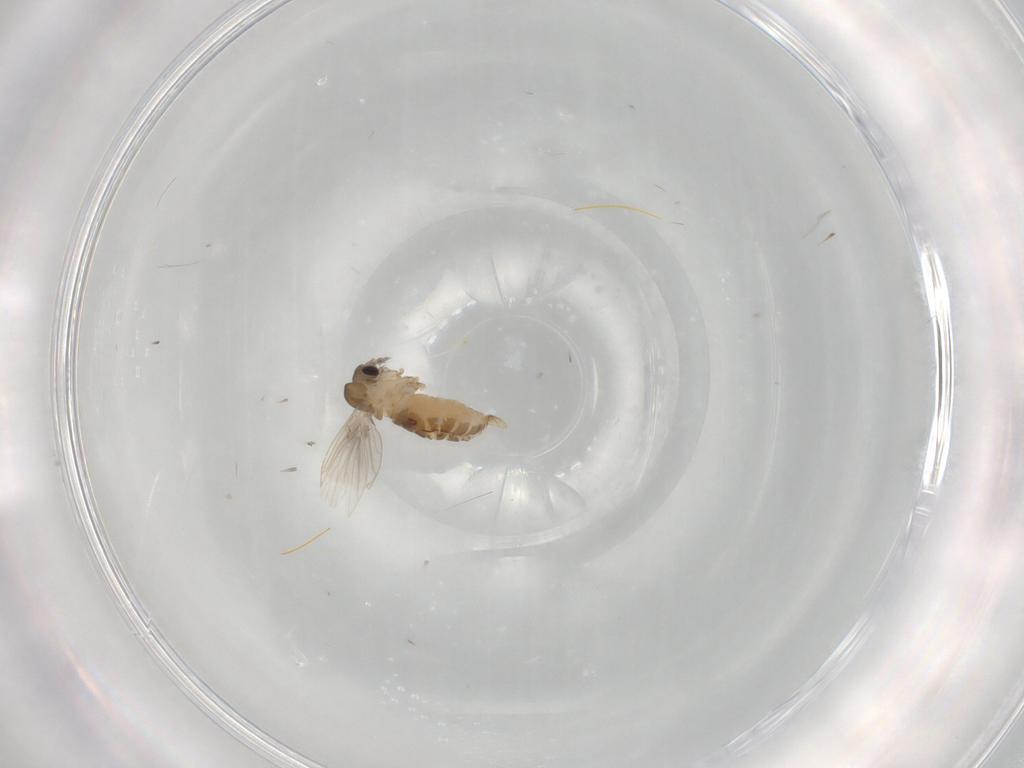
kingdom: Animalia
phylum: Arthropoda
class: Insecta
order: Diptera
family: Psychodidae
